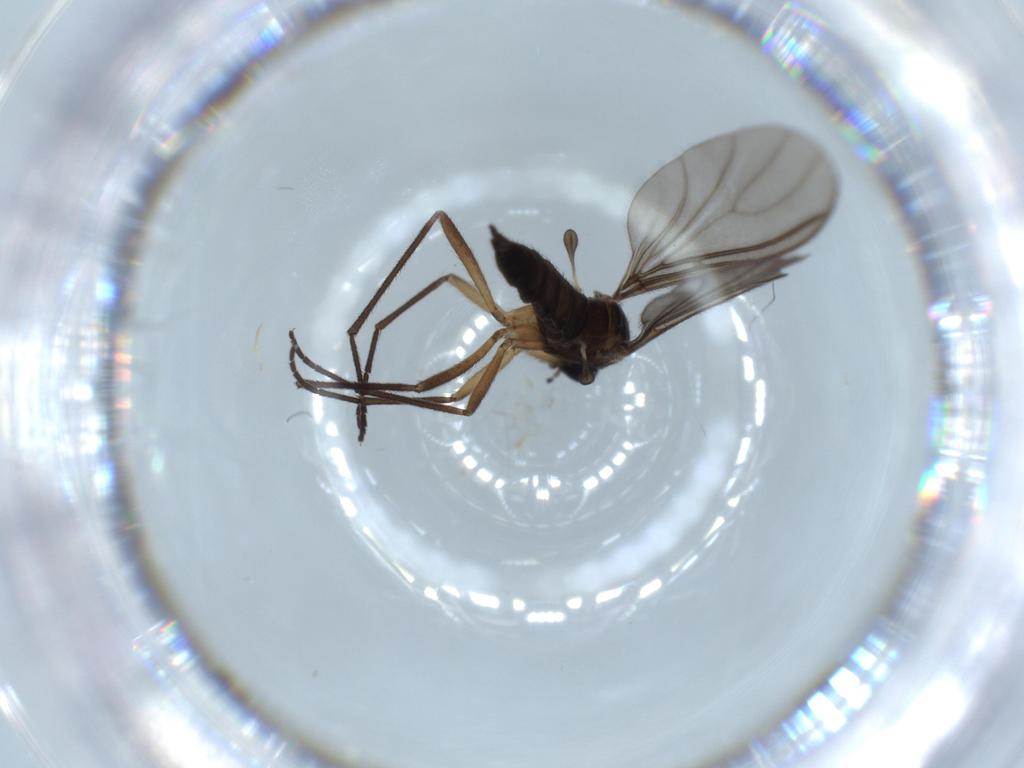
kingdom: Animalia
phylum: Arthropoda
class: Insecta
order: Diptera
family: Sciaridae
